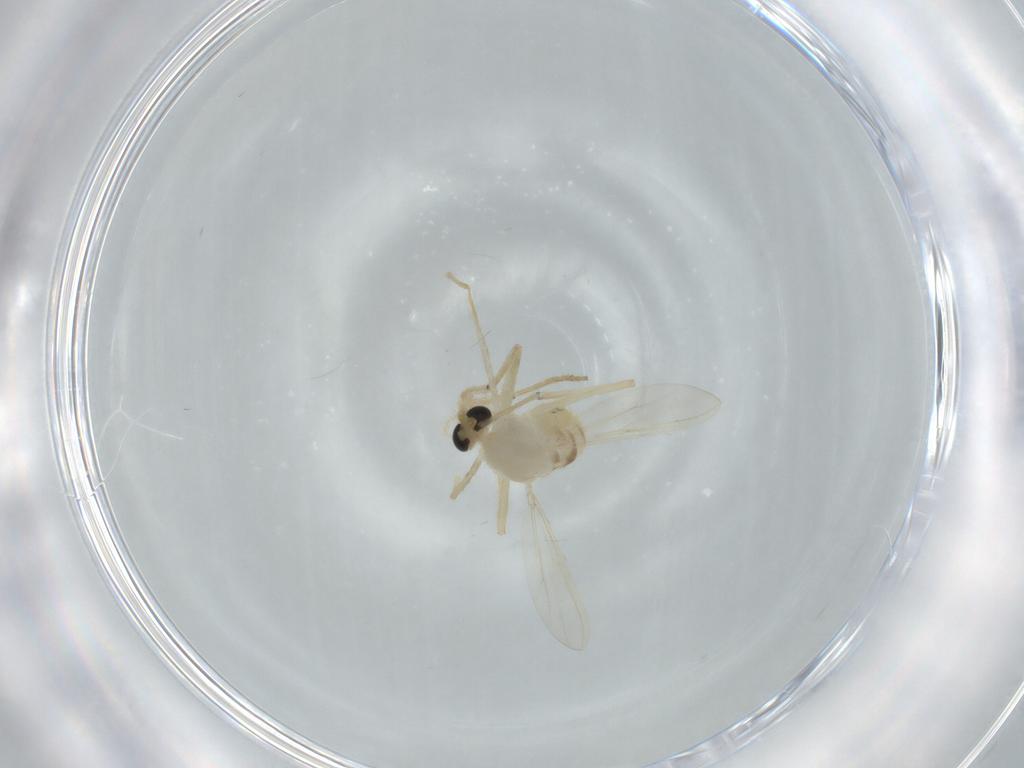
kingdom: Animalia
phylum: Arthropoda
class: Insecta
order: Diptera
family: Chironomidae
